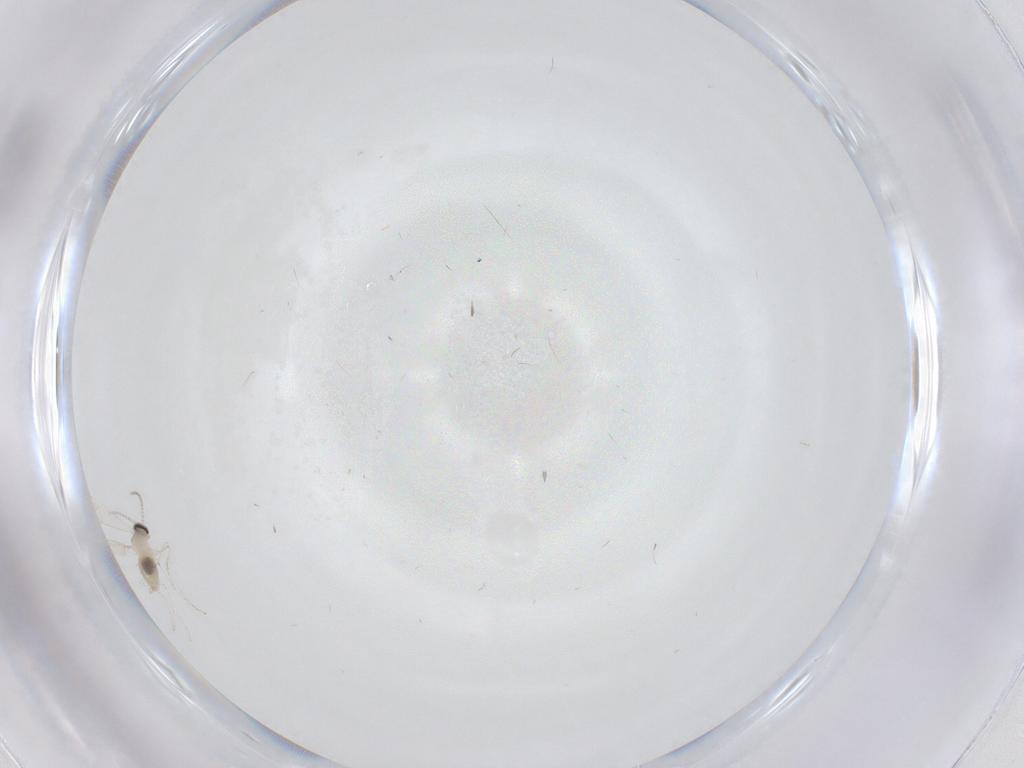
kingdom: Animalia
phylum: Arthropoda
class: Insecta
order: Diptera
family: Cecidomyiidae
